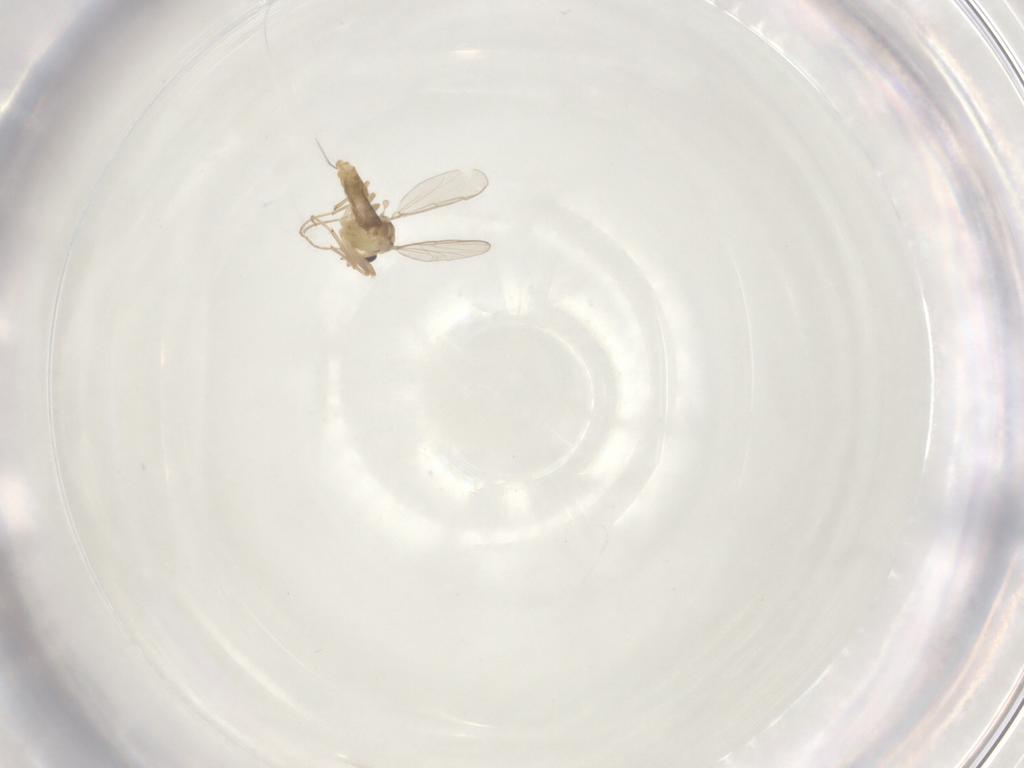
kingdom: Animalia
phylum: Arthropoda
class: Insecta
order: Diptera
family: Chironomidae
